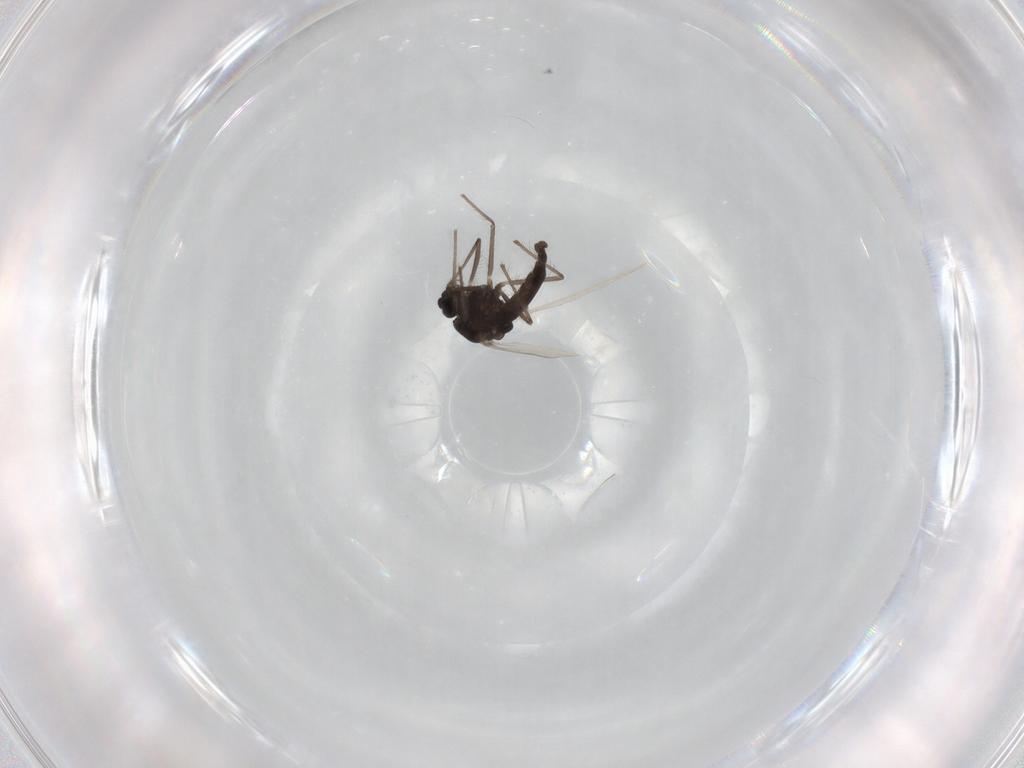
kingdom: Animalia
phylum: Arthropoda
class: Insecta
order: Diptera
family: Chironomidae
